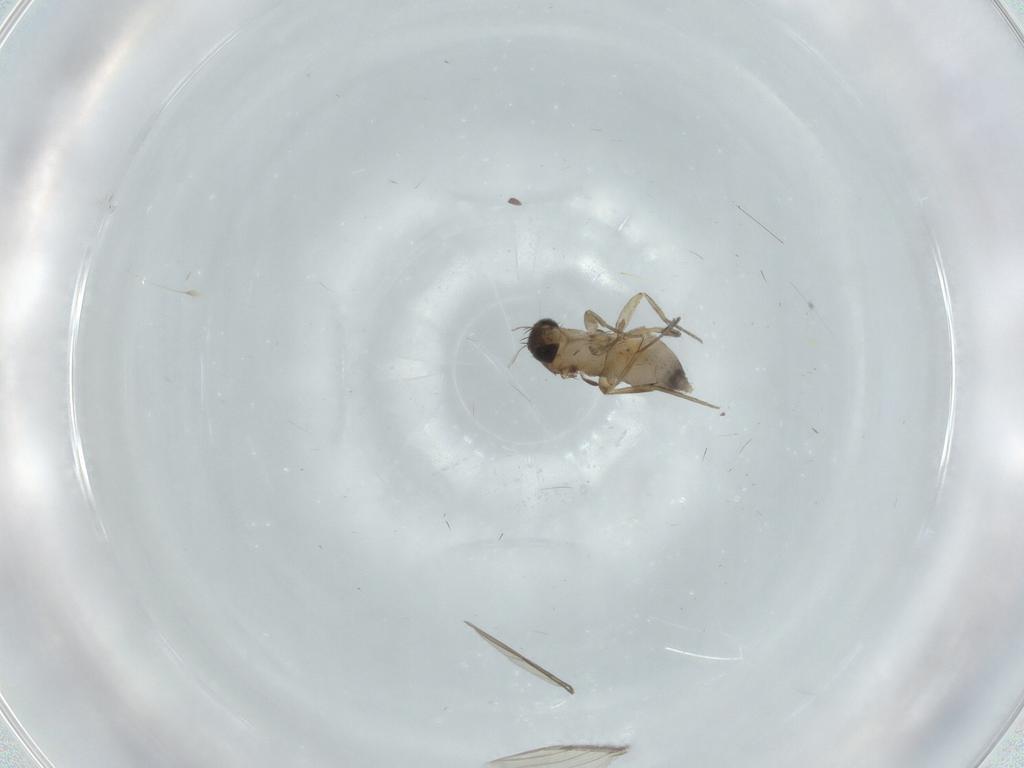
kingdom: Animalia
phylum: Arthropoda
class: Insecta
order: Diptera
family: Phoridae
